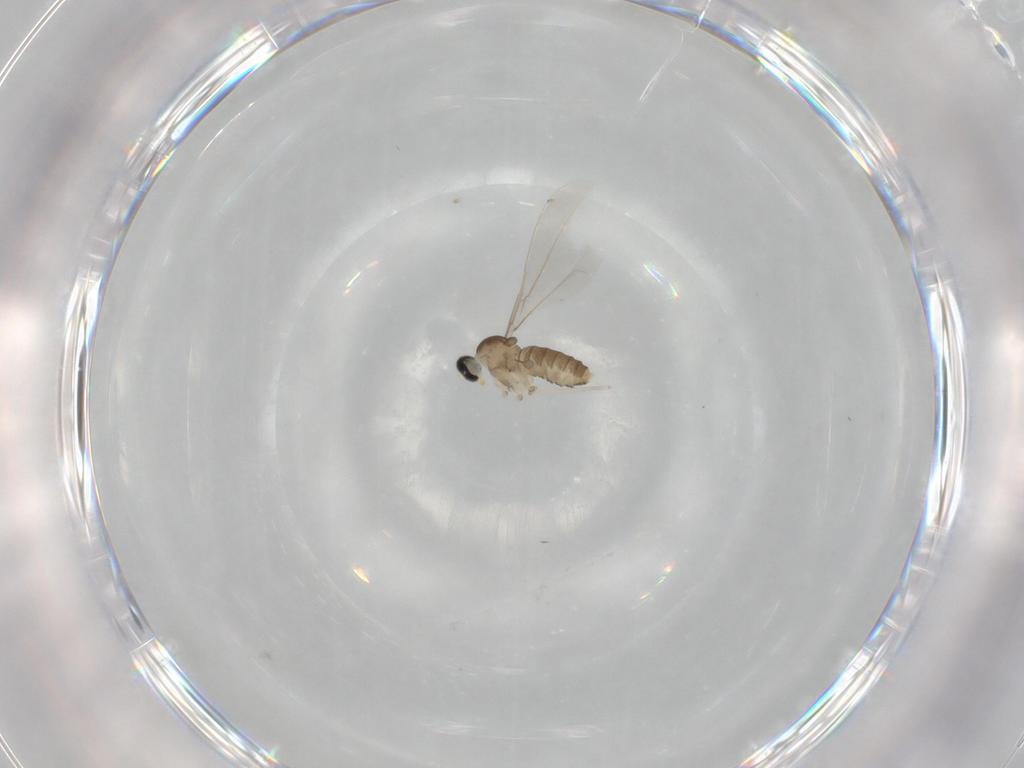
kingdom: Animalia
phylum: Arthropoda
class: Insecta
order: Diptera
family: Cecidomyiidae
